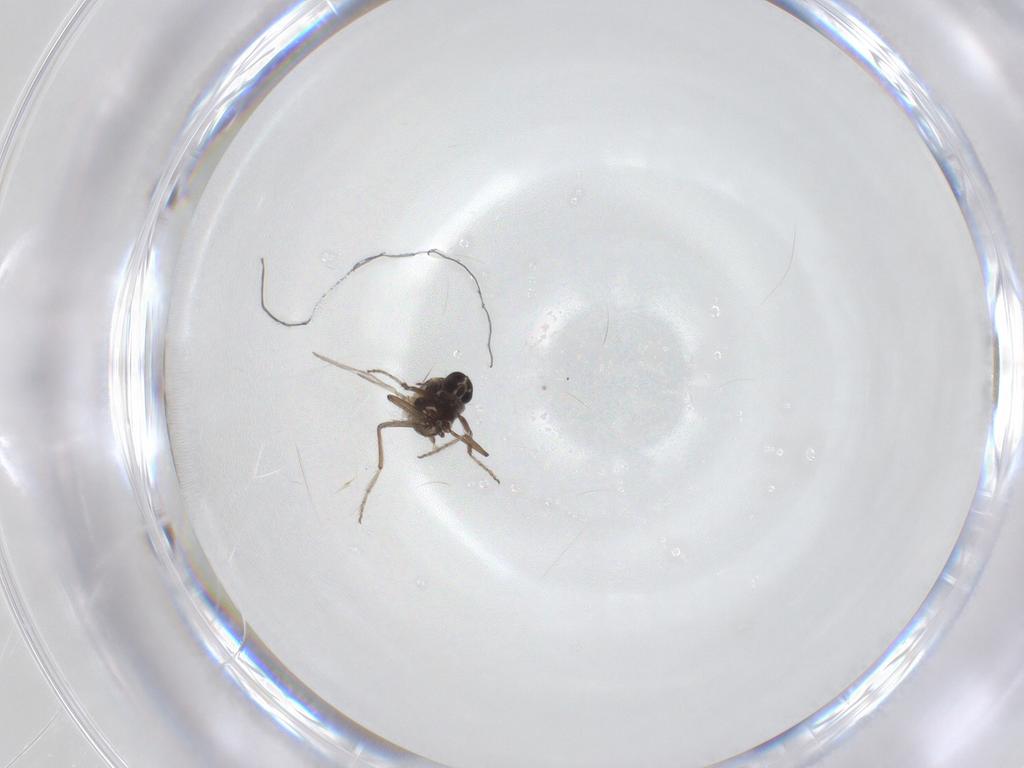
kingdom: Animalia
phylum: Arthropoda
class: Insecta
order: Diptera
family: Ceratopogonidae
